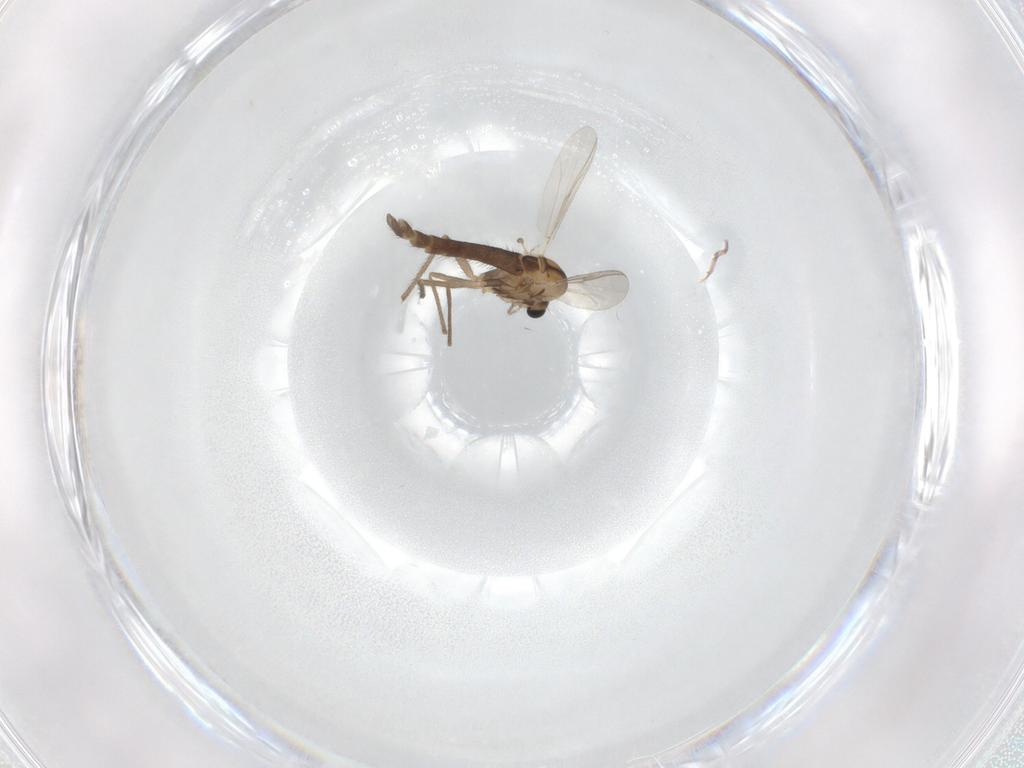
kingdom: Animalia
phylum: Arthropoda
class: Insecta
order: Diptera
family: Chironomidae
